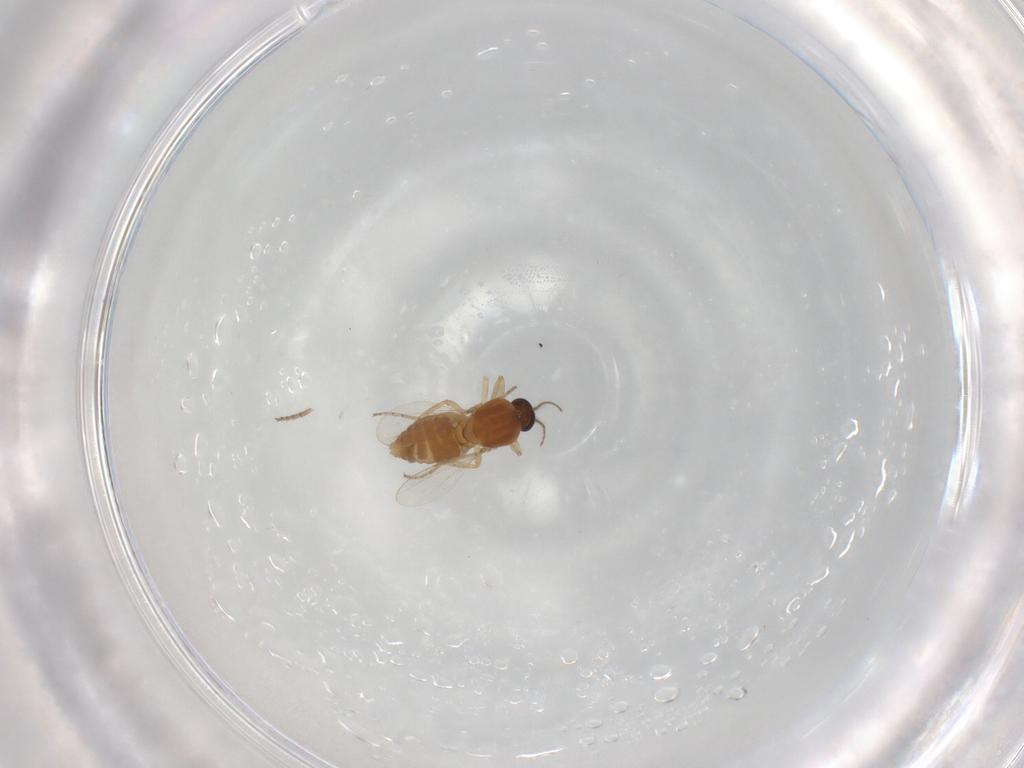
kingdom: Animalia
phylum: Arthropoda
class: Insecta
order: Diptera
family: Ceratopogonidae
